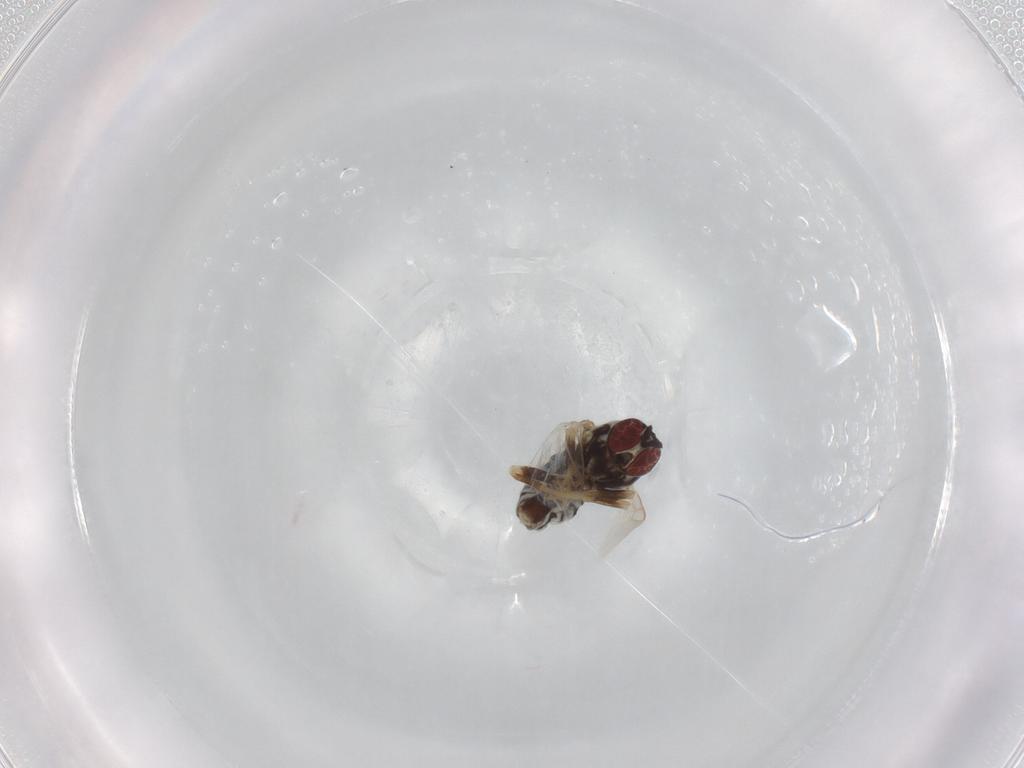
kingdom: Animalia
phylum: Arthropoda
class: Insecta
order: Diptera
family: Bombyliidae
